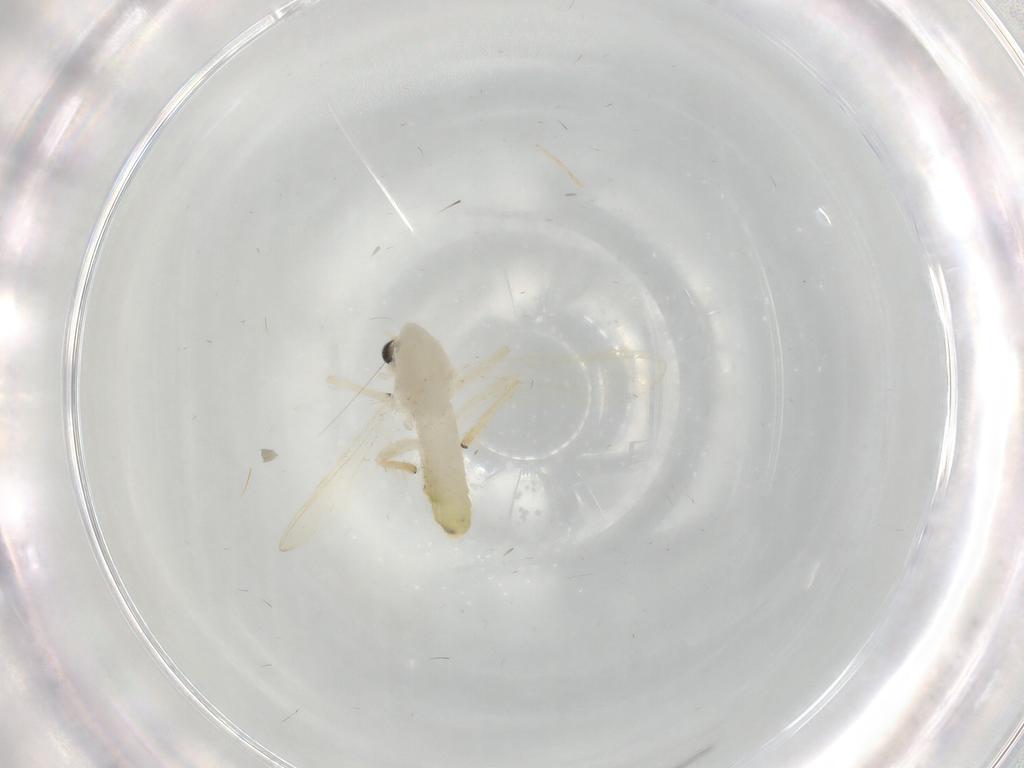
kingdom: Animalia
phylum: Arthropoda
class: Insecta
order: Diptera
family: Chironomidae
